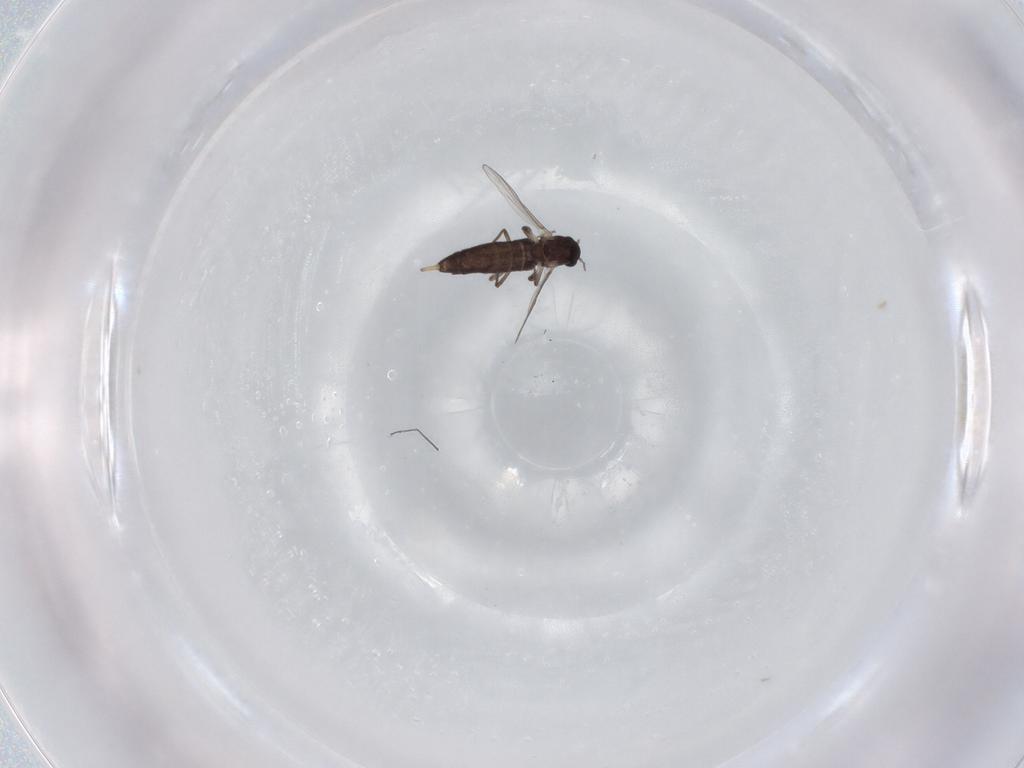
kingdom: Animalia
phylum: Arthropoda
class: Insecta
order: Diptera
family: Chironomidae
